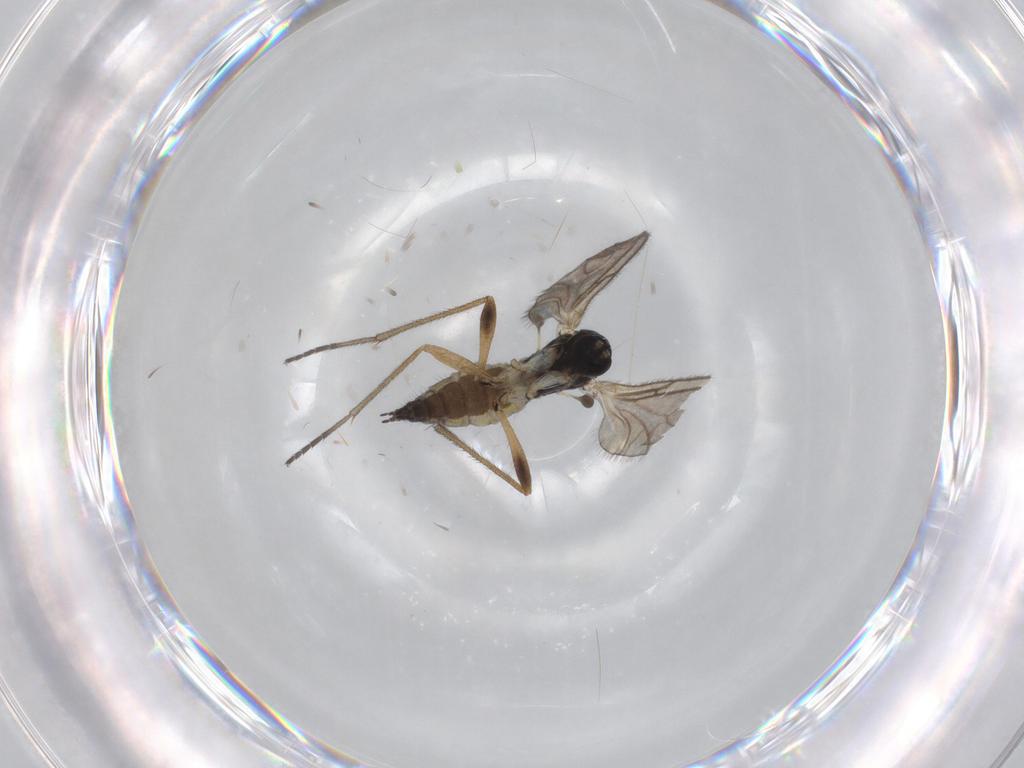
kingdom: Animalia
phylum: Arthropoda
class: Insecta
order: Diptera
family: Sciaridae
